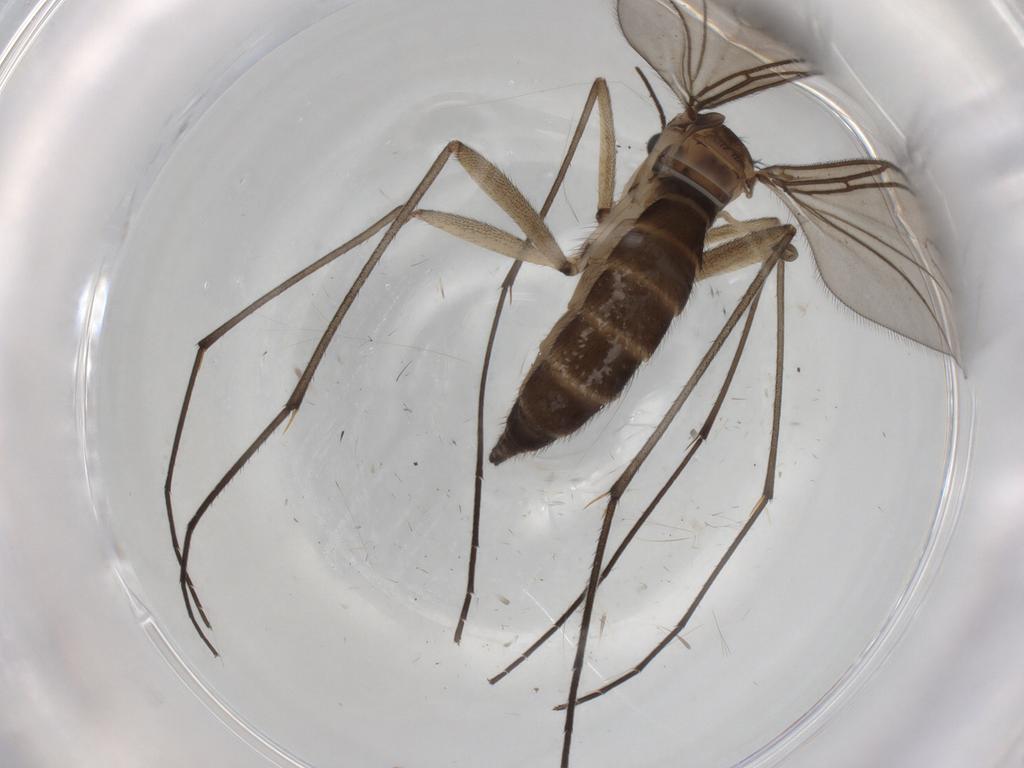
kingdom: Animalia
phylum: Arthropoda
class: Insecta
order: Diptera
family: Sciaridae
